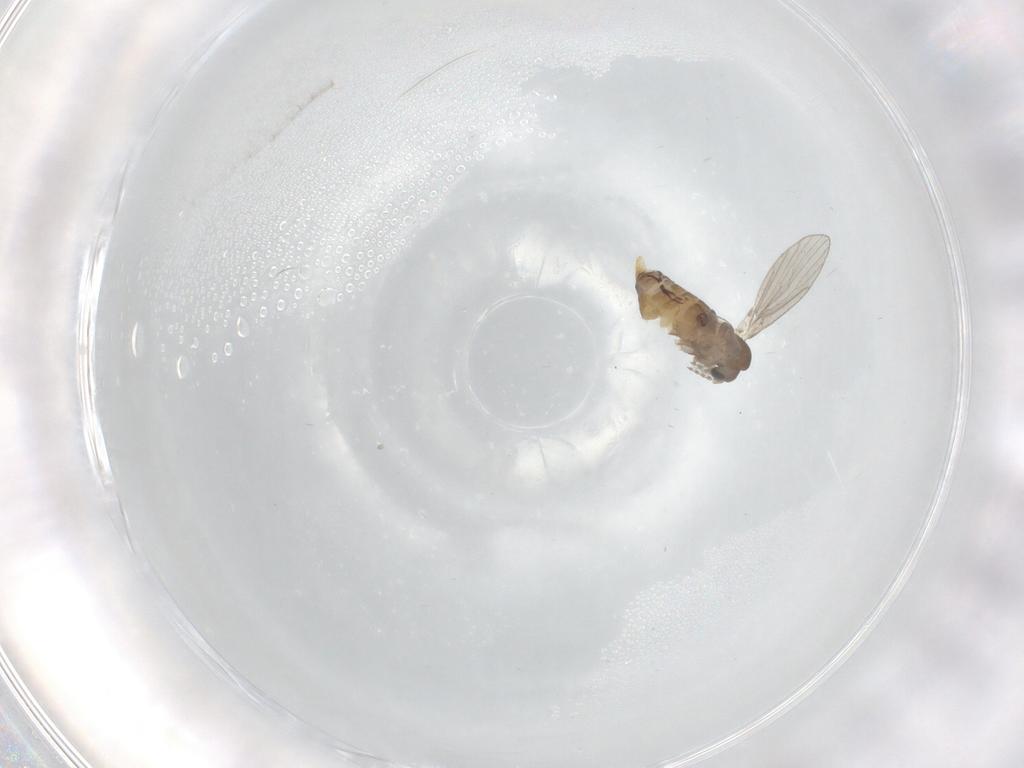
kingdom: Animalia
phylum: Arthropoda
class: Insecta
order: Diptera
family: Psychodidae
